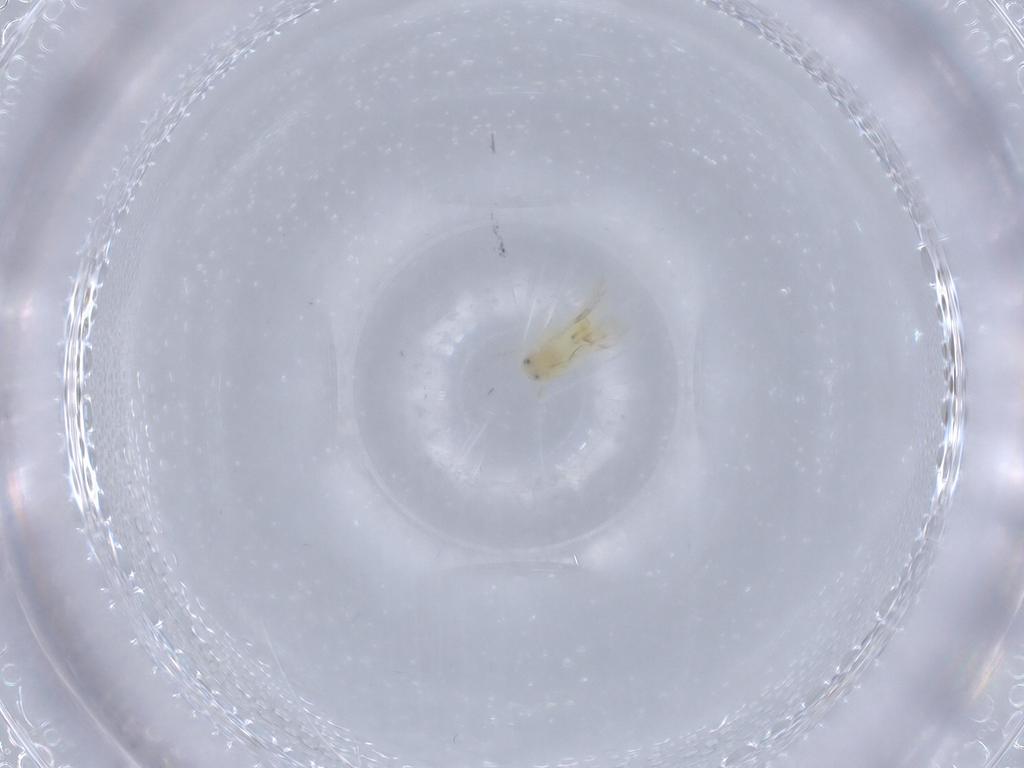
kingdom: Animalia
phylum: Arthropoda
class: Insecta
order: Hemiptera
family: Aleyrodidae
